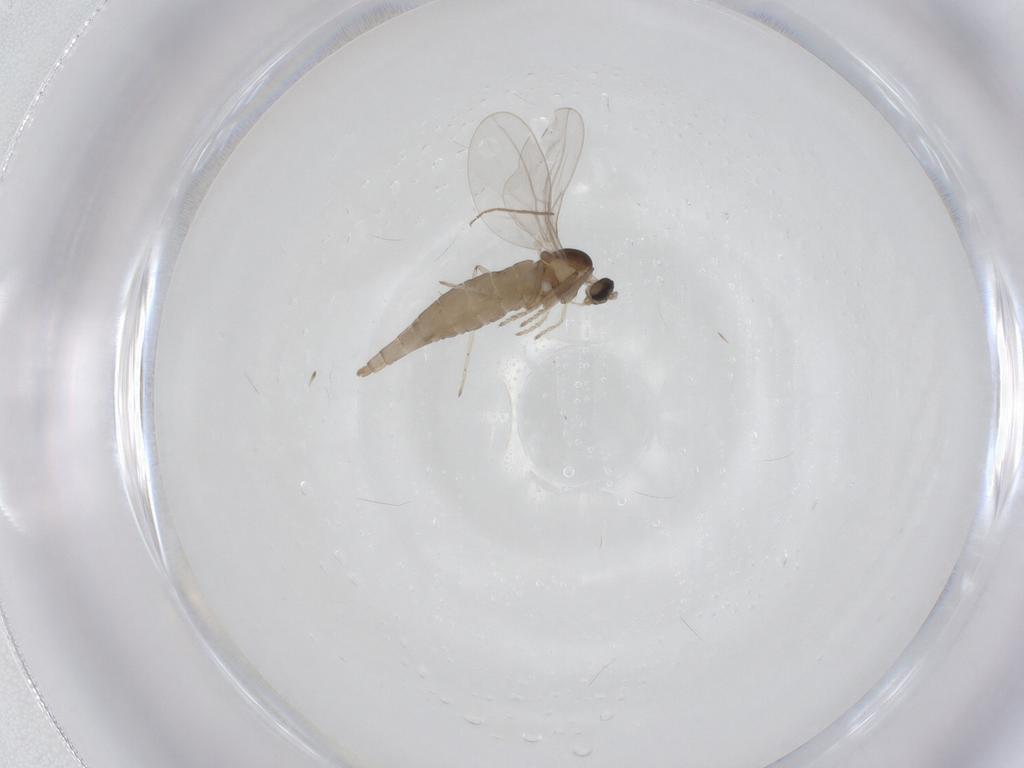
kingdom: Animalia
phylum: Arthropoda
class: Insecta
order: Diptera
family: Cecidomyiidae
